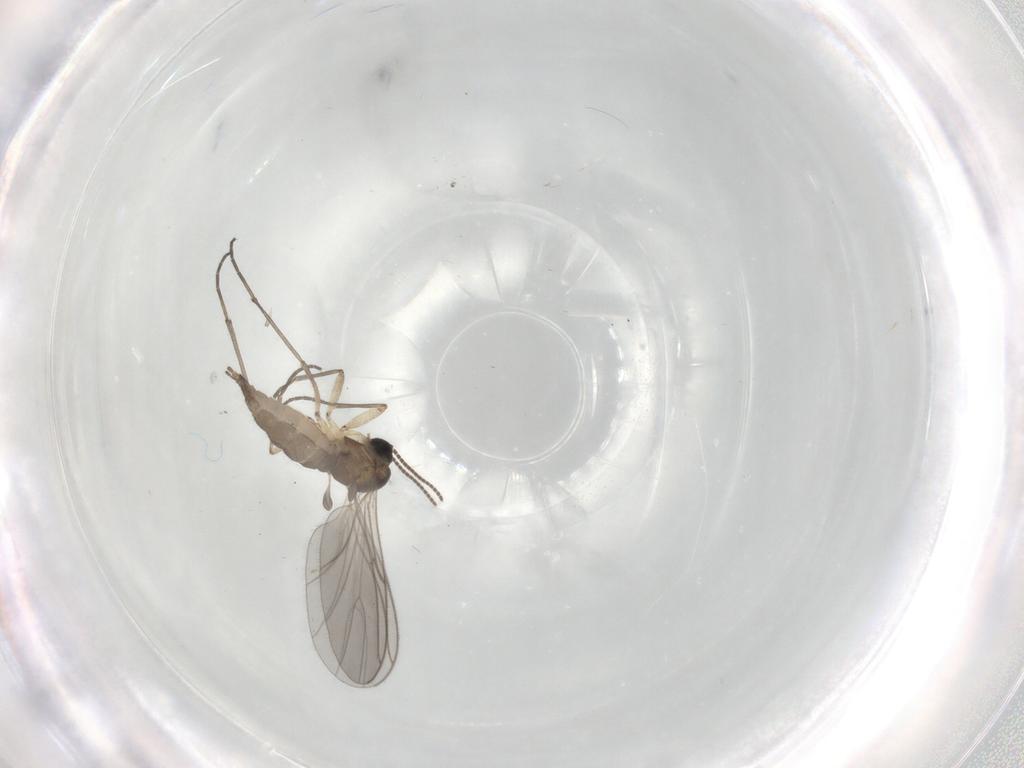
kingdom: Animalia
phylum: Arthropoda
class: Insecta
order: Diptera
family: Sciaridae
